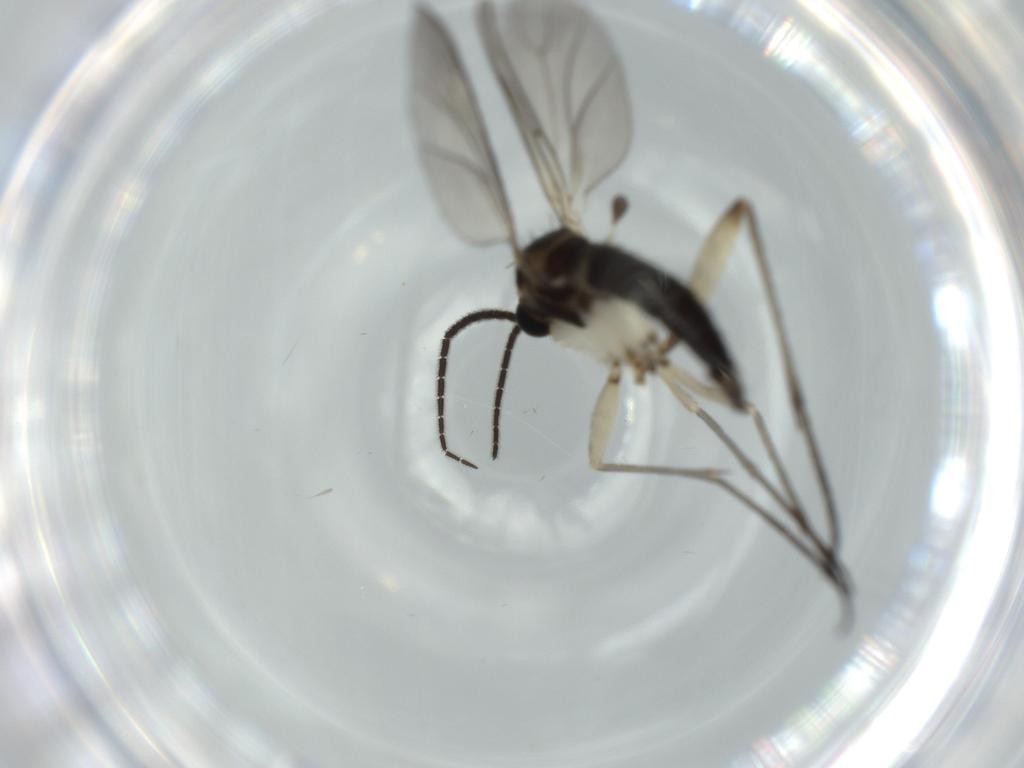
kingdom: Animalia
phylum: Arthropoda
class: Insecta
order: Diptera
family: Sciaridae
